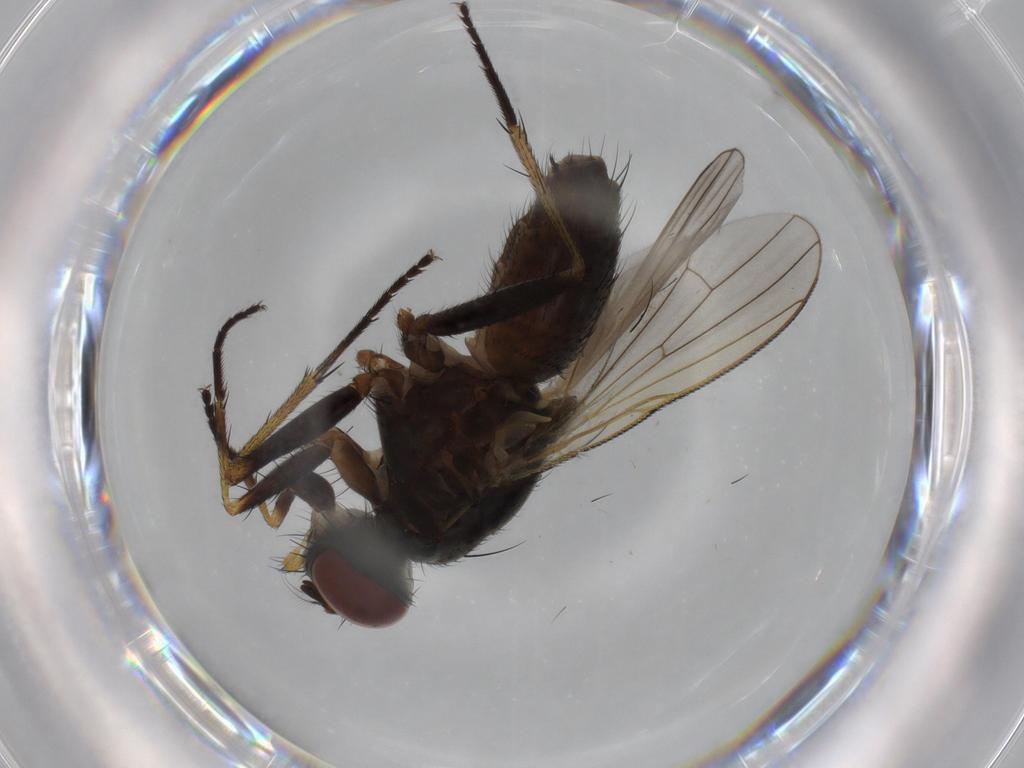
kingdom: Animalia
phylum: Arthropoda
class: Insecta
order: Diptera
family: Muscidae
